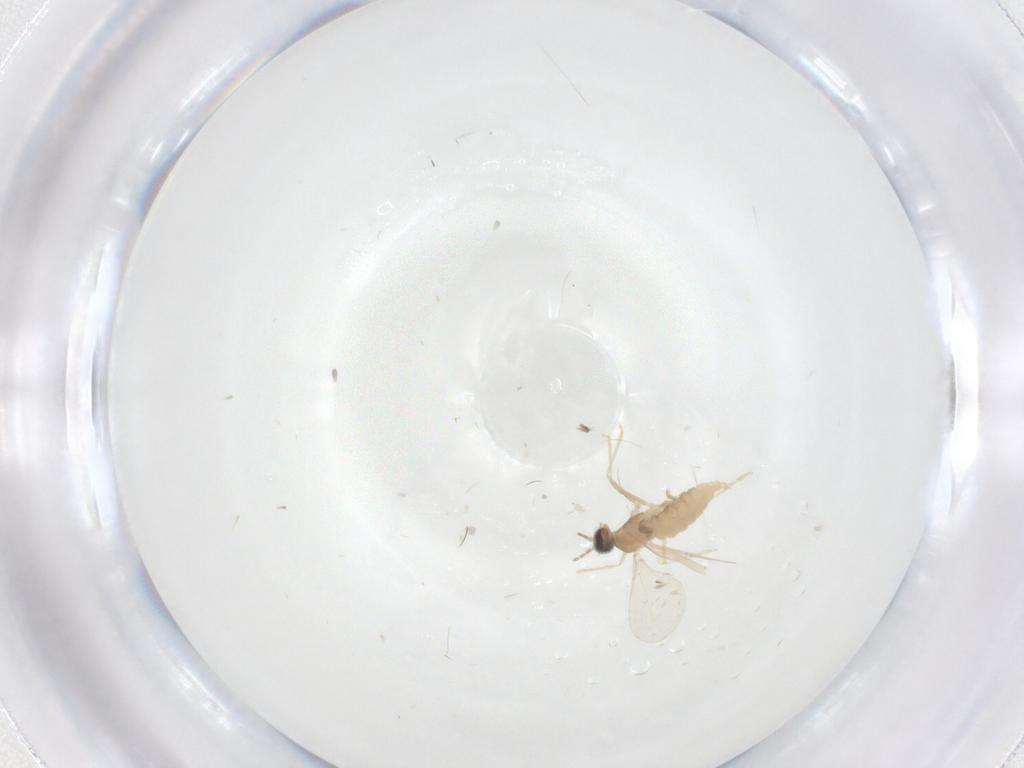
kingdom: Animalia
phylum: Arthropoda
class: Insecta
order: Diptera
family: Cecidomyiidae
